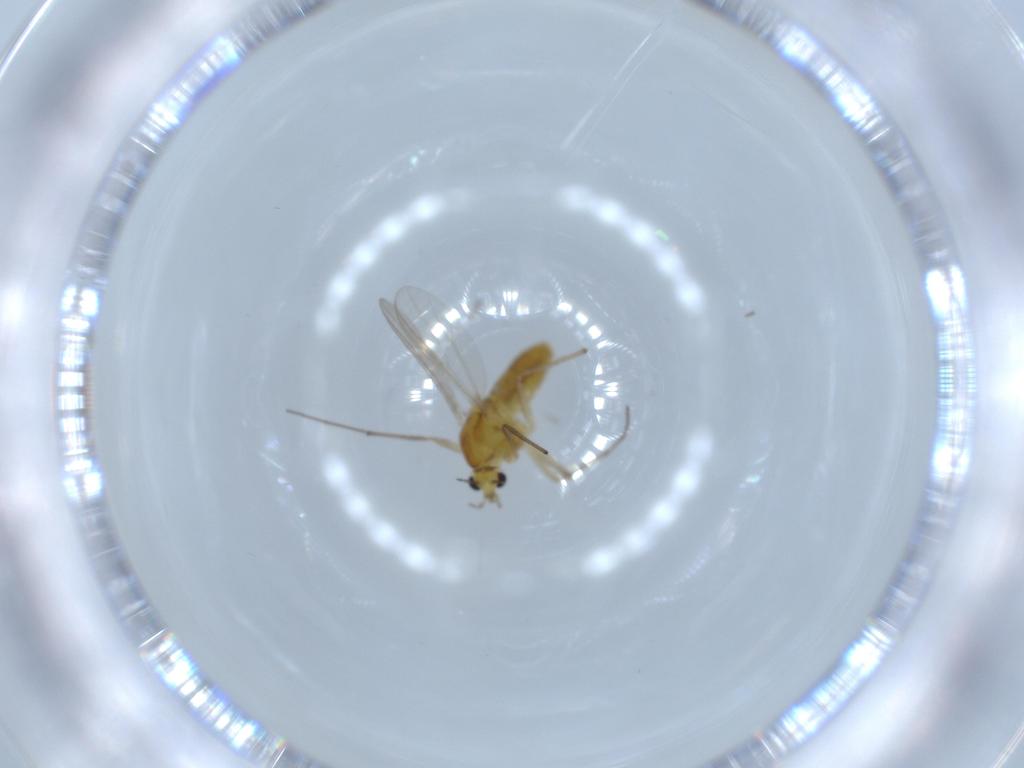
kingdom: Animalia
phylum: Arthropoda
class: Insecta
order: Diptera
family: Chironomidae
